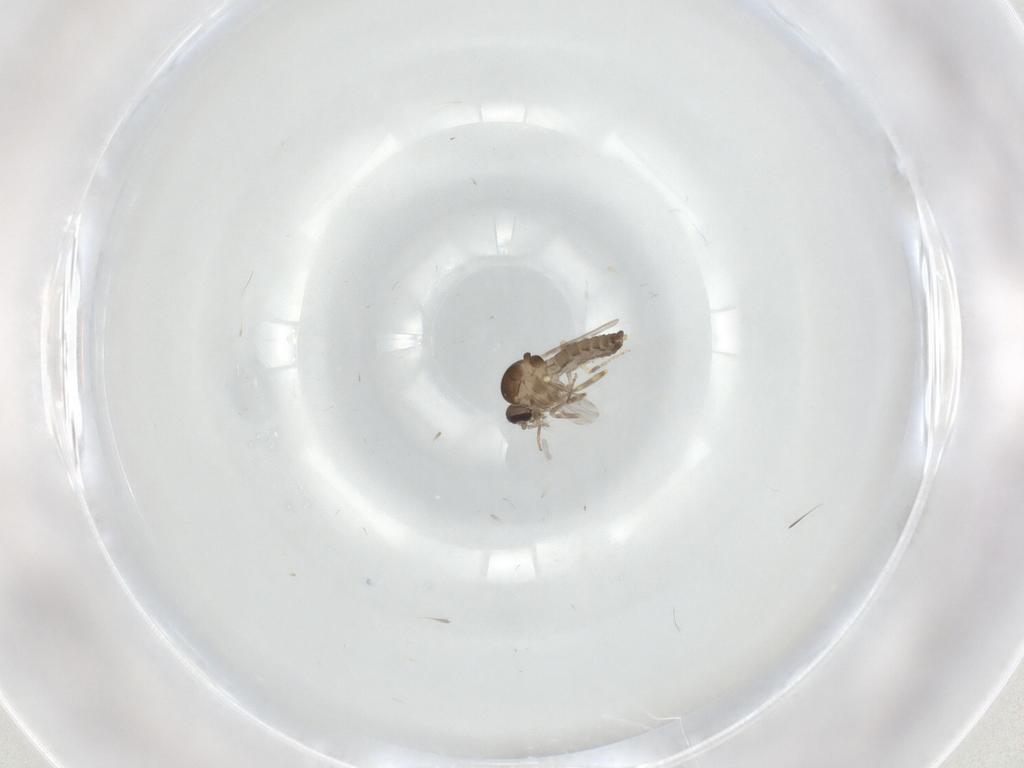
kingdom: Animalia
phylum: Arthropoda
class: Insecta
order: Diptera
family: Ceratopogonidae
